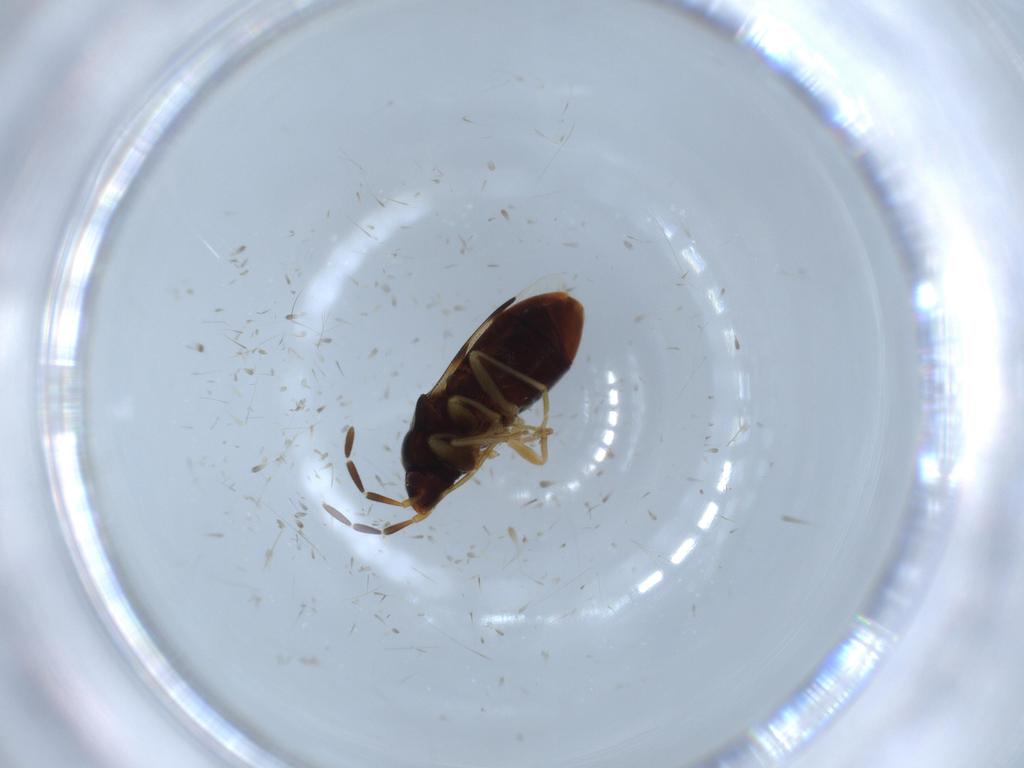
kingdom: Animalia
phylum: Arthropoda
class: Insecta
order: Hemiptera
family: Rhyparochromidae
